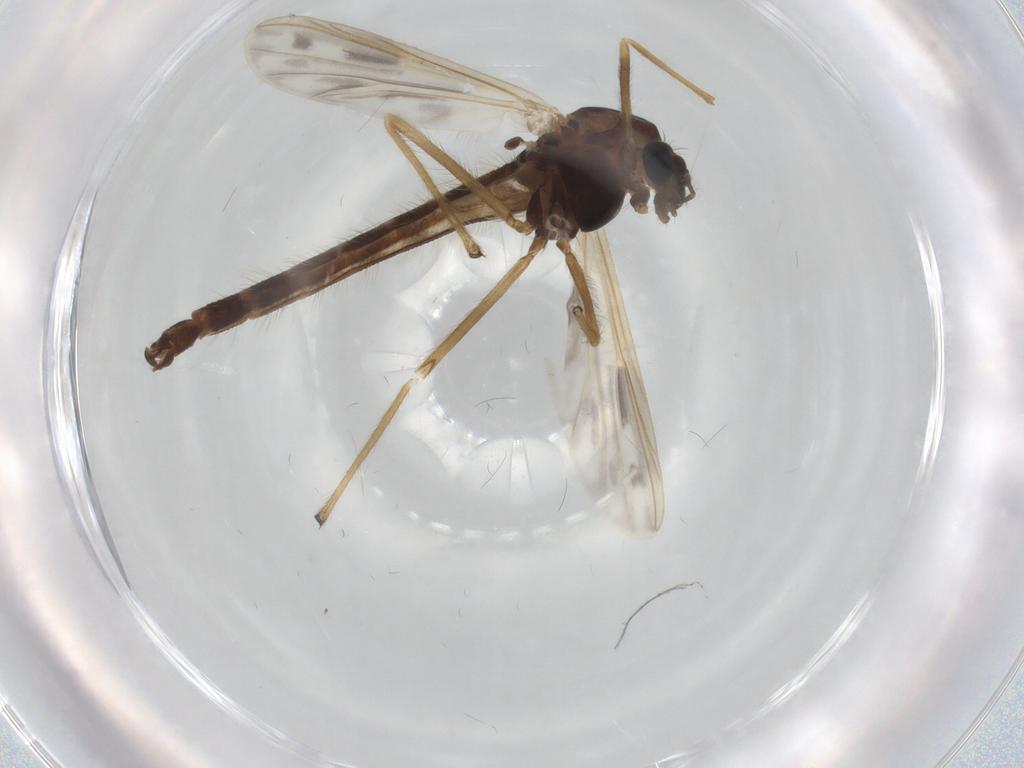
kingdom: Animalia
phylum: Arthropoda
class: Insecta
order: Diptera
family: Chironomidae
